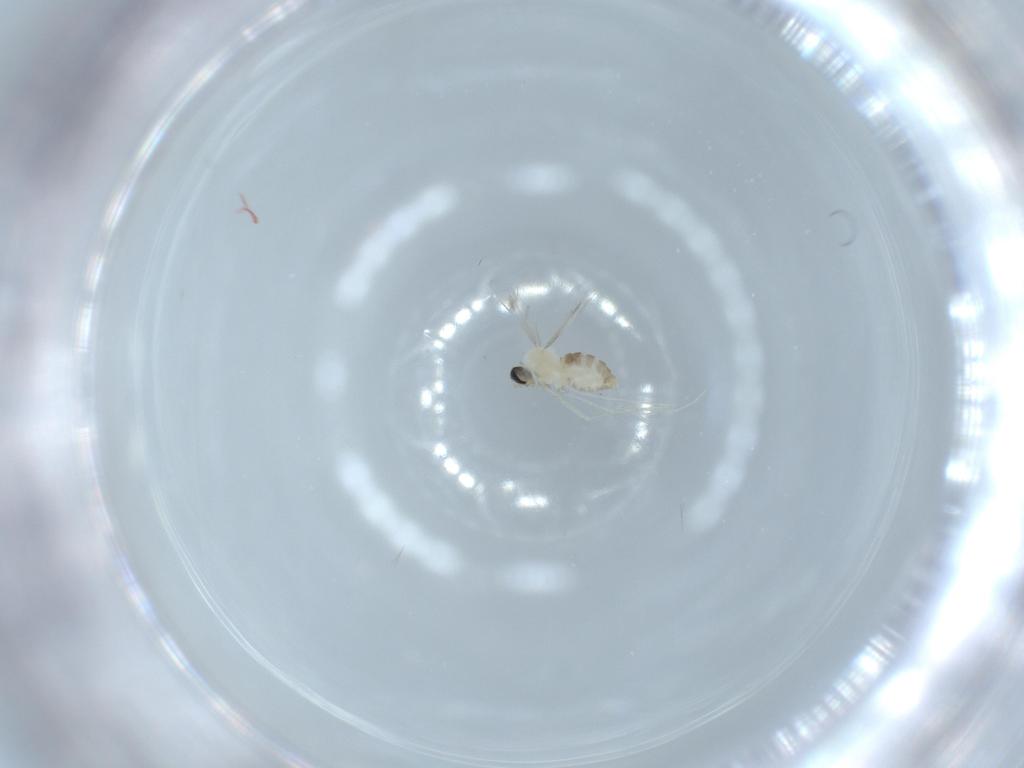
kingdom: Animalia
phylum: Arthropoda
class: Insecta
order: Diptera
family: Cecidomyiidae
